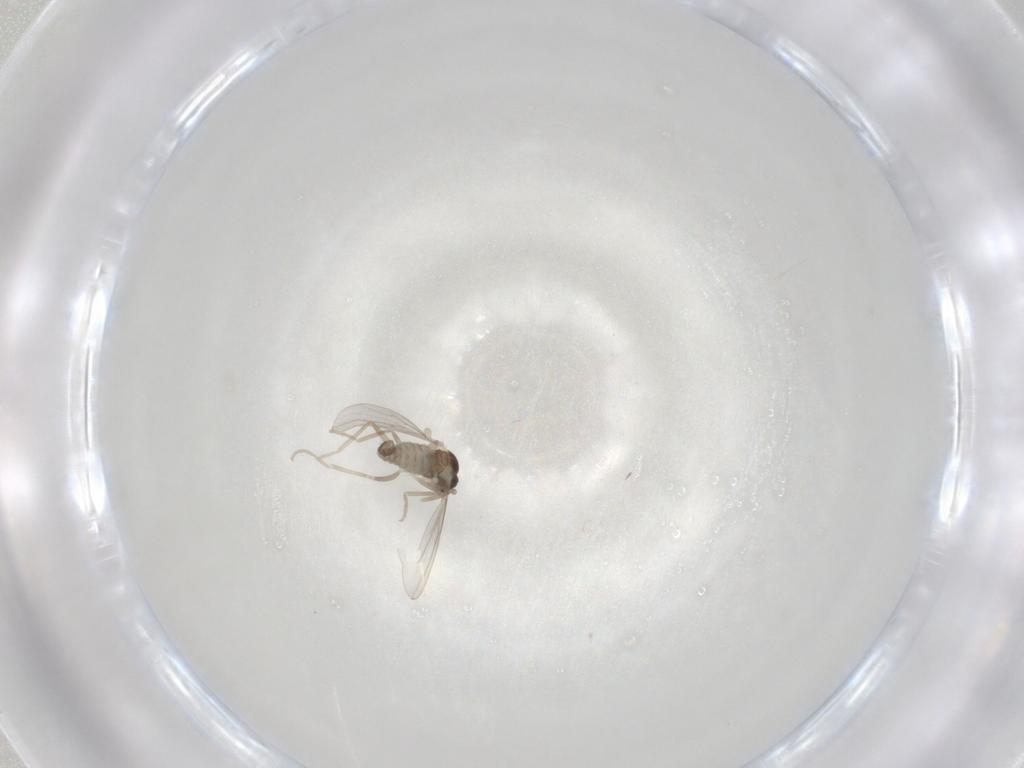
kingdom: Animalia
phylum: Arthropoda
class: Insecta
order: Diptera
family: Cecidomyiidae
